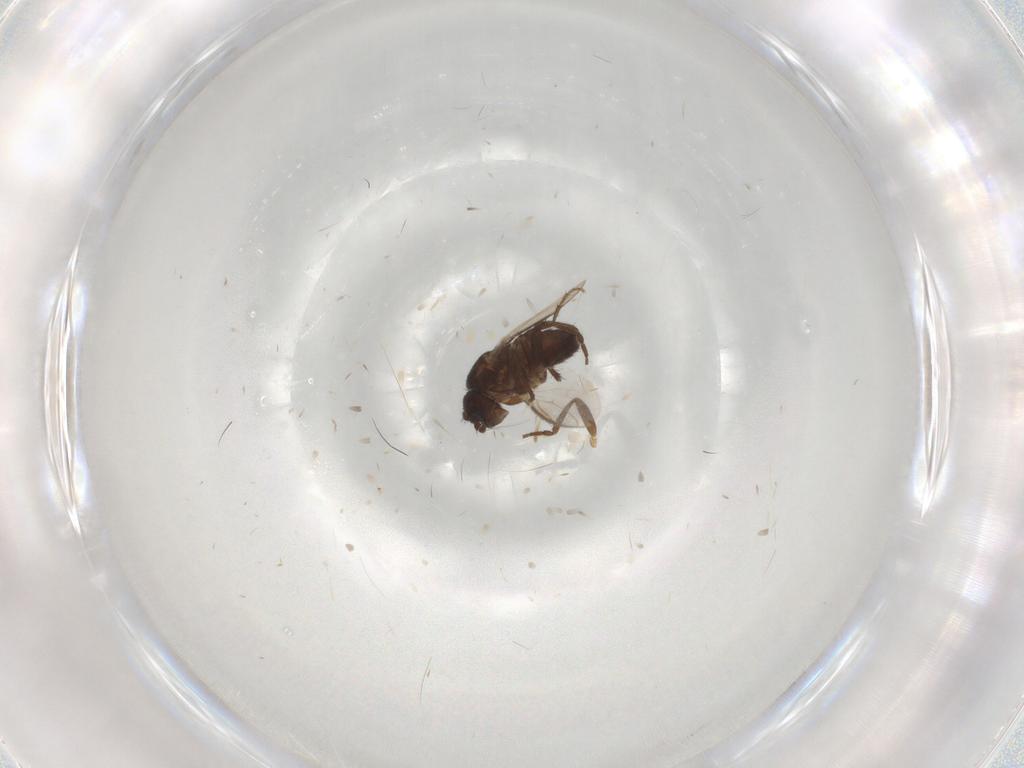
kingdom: Animalia
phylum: Arthropoda
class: Insecta
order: Diptera
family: Sphaeroceridae
